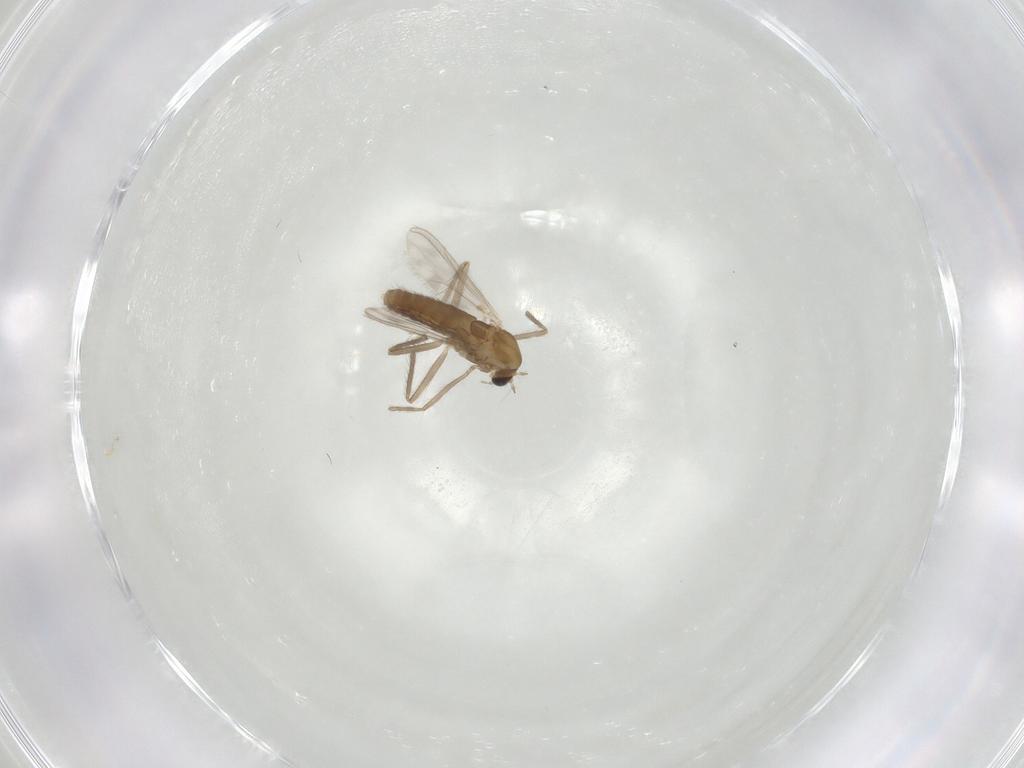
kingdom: Animalia
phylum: Arthropoda
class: Insecta
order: Diptera
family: Chironomidae
